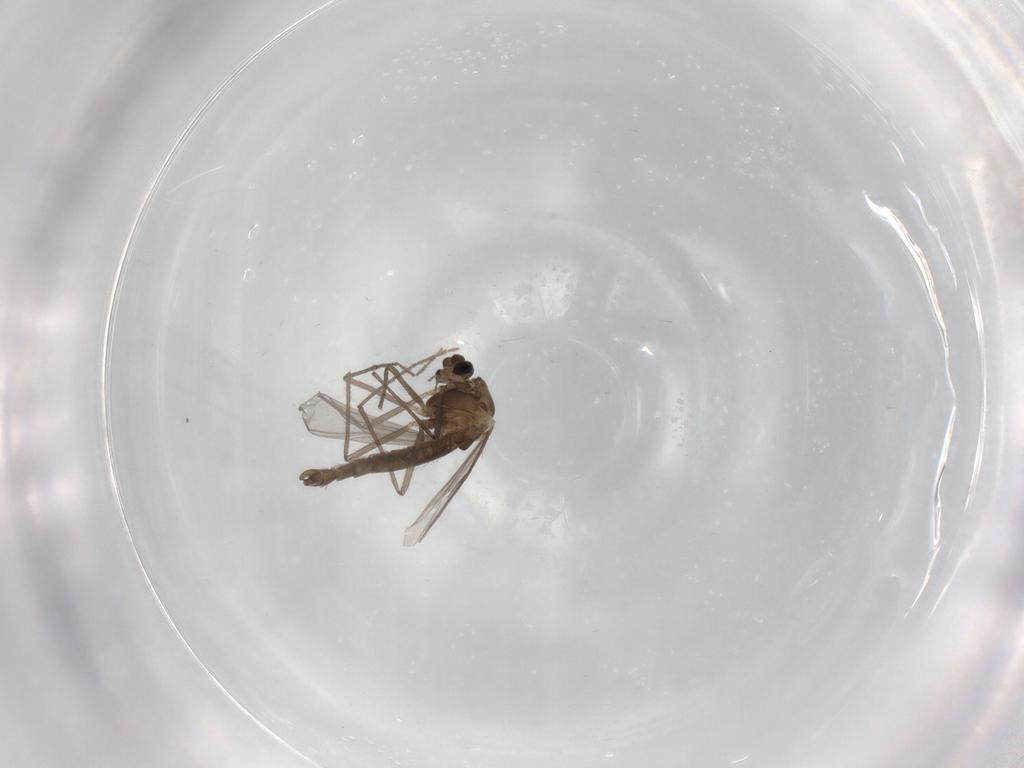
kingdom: Animalia
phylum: Arthropoda
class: Insecta
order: Diptera
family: Chironomidae
